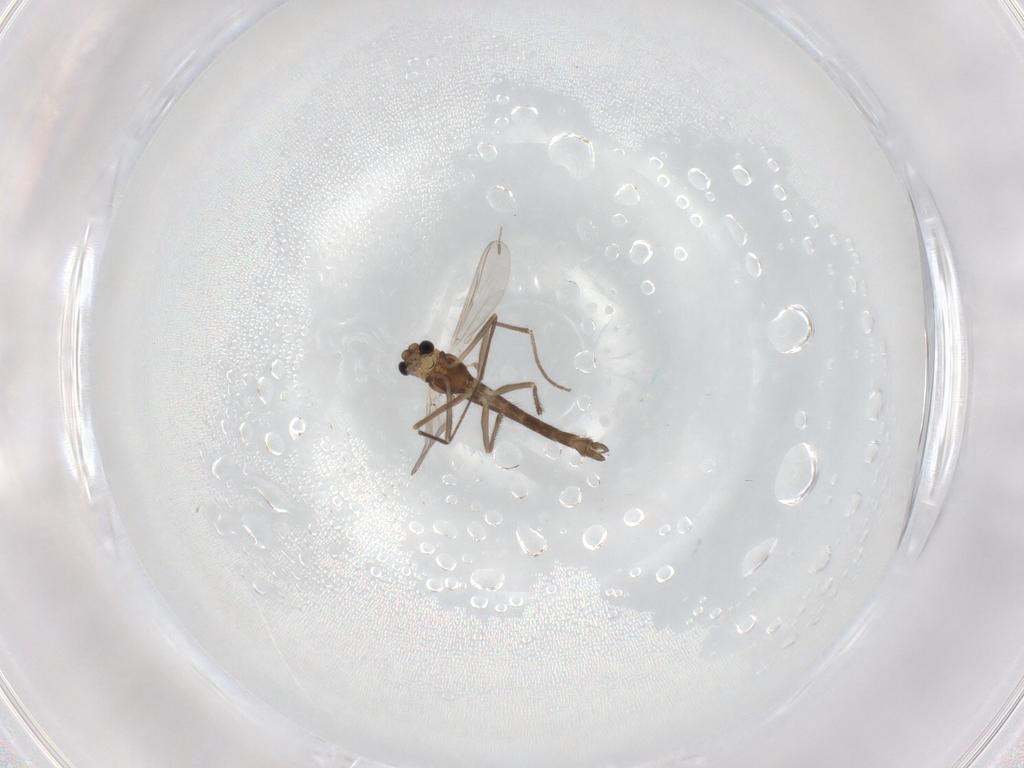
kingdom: Animalia
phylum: Arthropoda
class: Insecta
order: Diptera
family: Chironomidae
